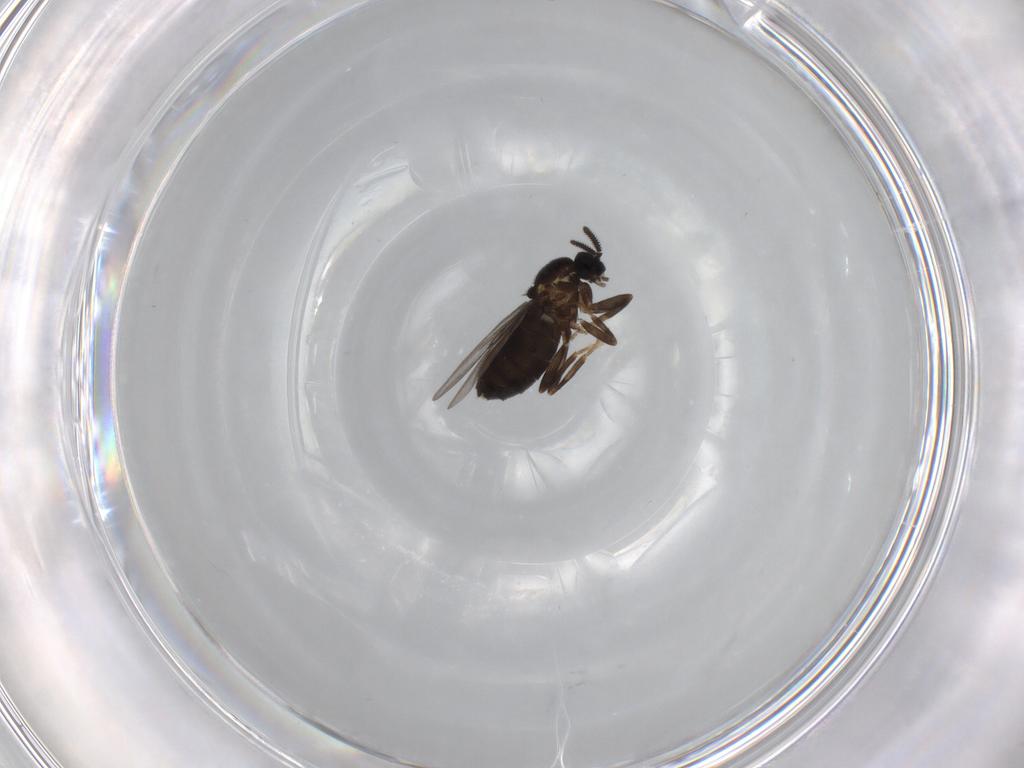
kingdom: Animalia
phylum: Arthropoda
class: Insecta
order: Diptera
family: Scatopsidae
